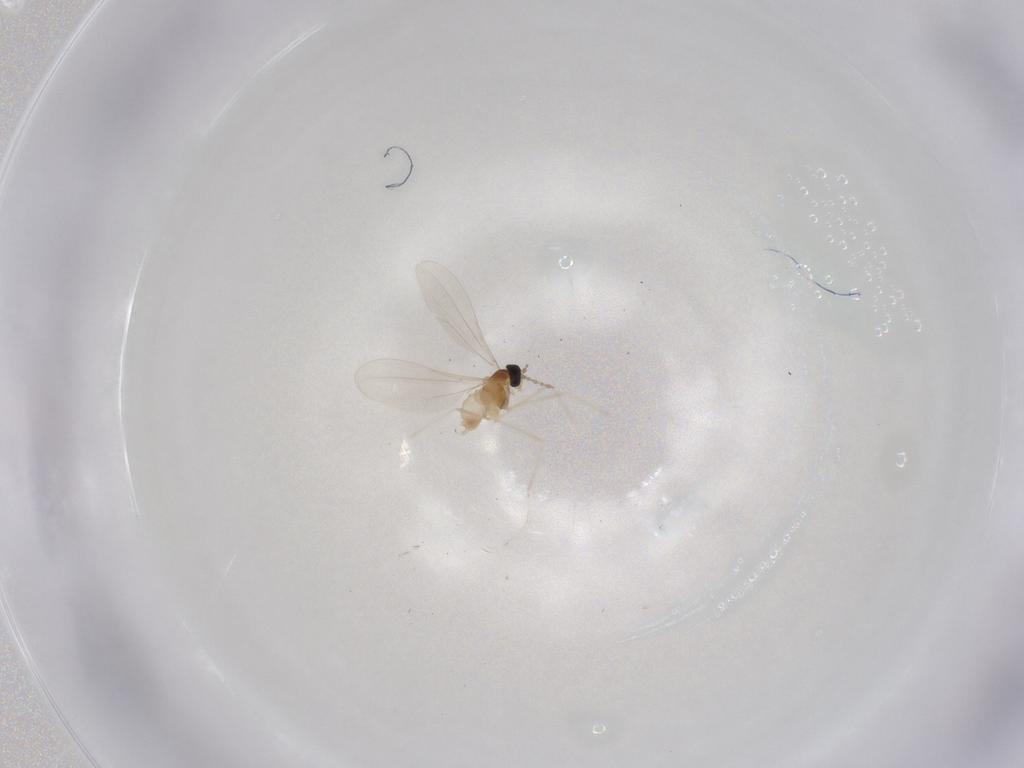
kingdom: Animalia
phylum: Arthropoda
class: Insecta
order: Diptera
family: Cecidomyiidae
